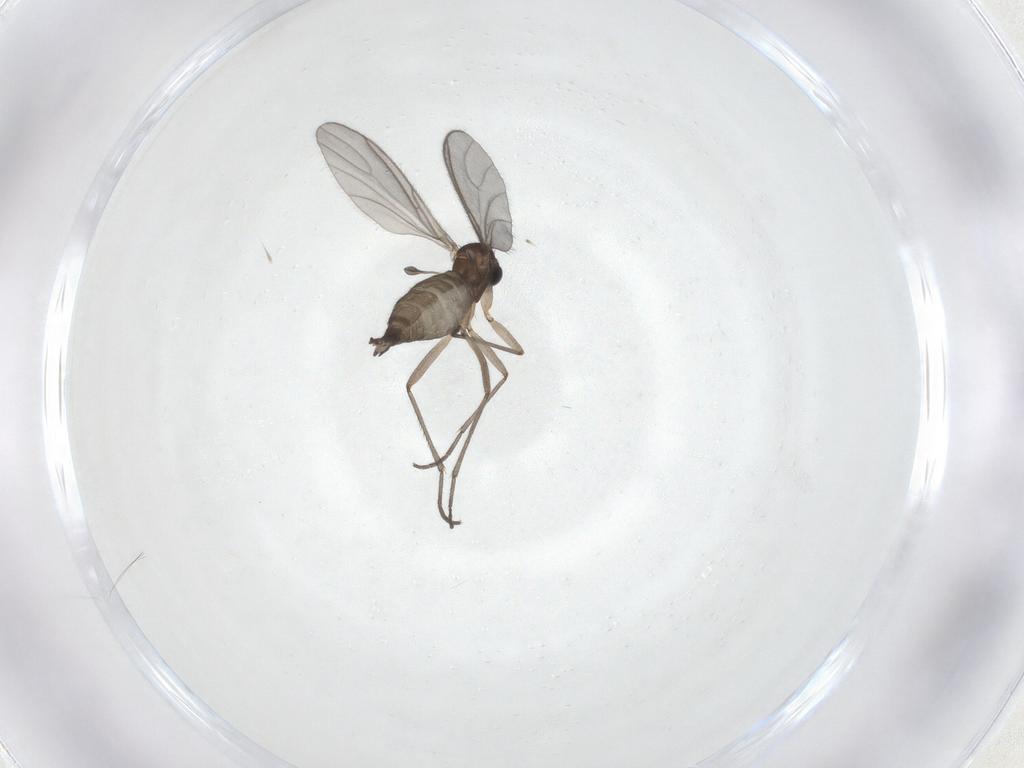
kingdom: Animalia
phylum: Arthropoda
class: Insecta
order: Diptera
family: Sciaridae
